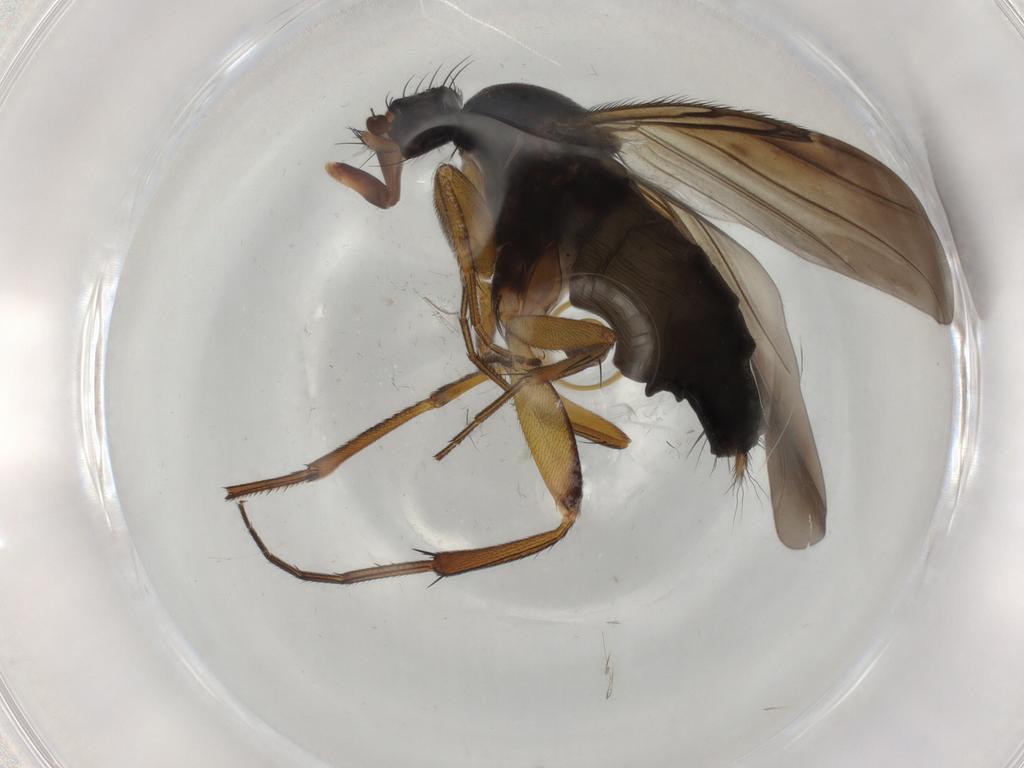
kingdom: Animalia
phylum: Arthropoda
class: Insecta
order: Diptera
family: Phoridae
